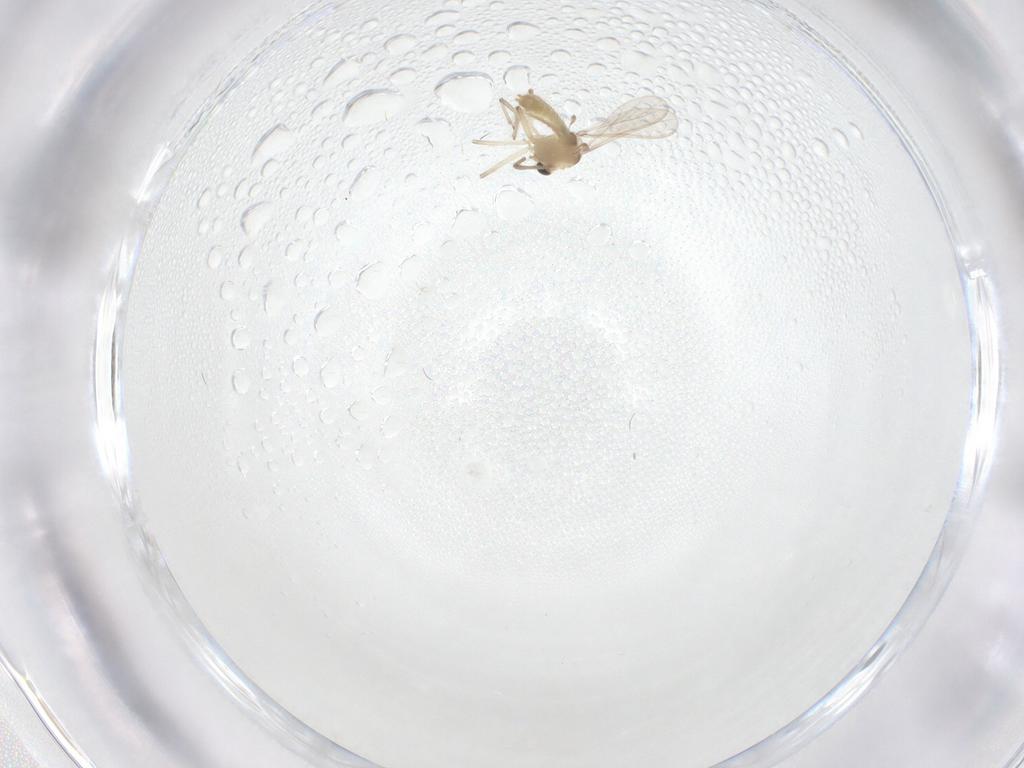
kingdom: Animalia
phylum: Arthropoda
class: Insecta
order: Diptera
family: Chironomidae
